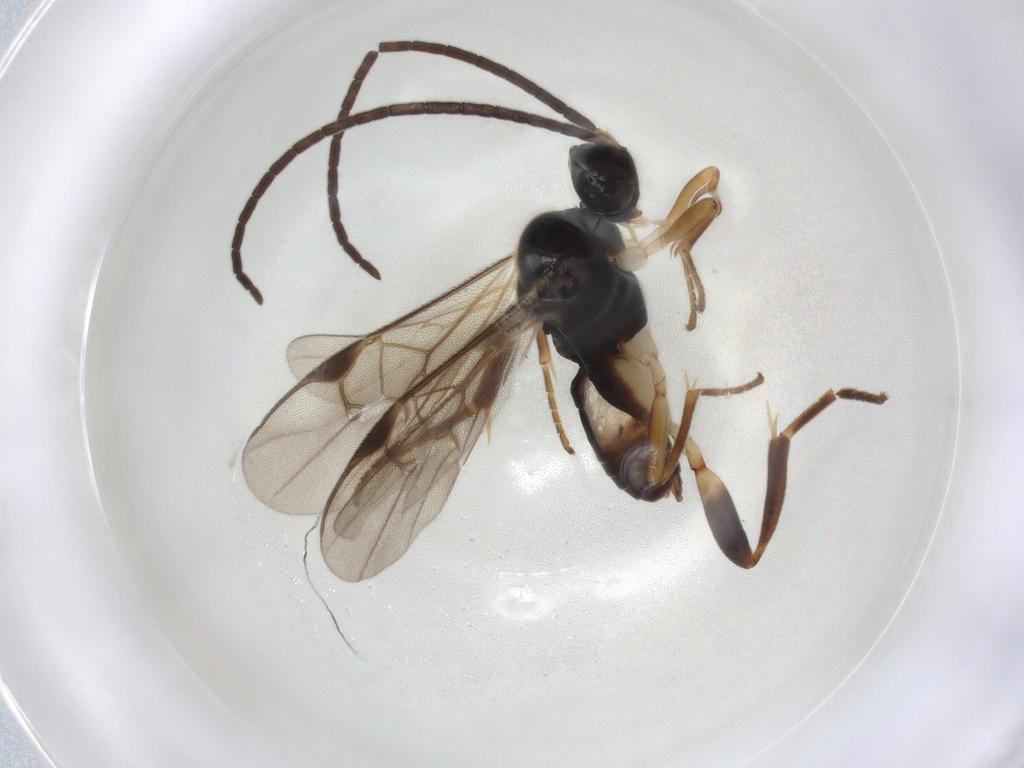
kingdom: Animalia
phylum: Arthropoda
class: Insecta
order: Hymenoptera
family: Braconidae
